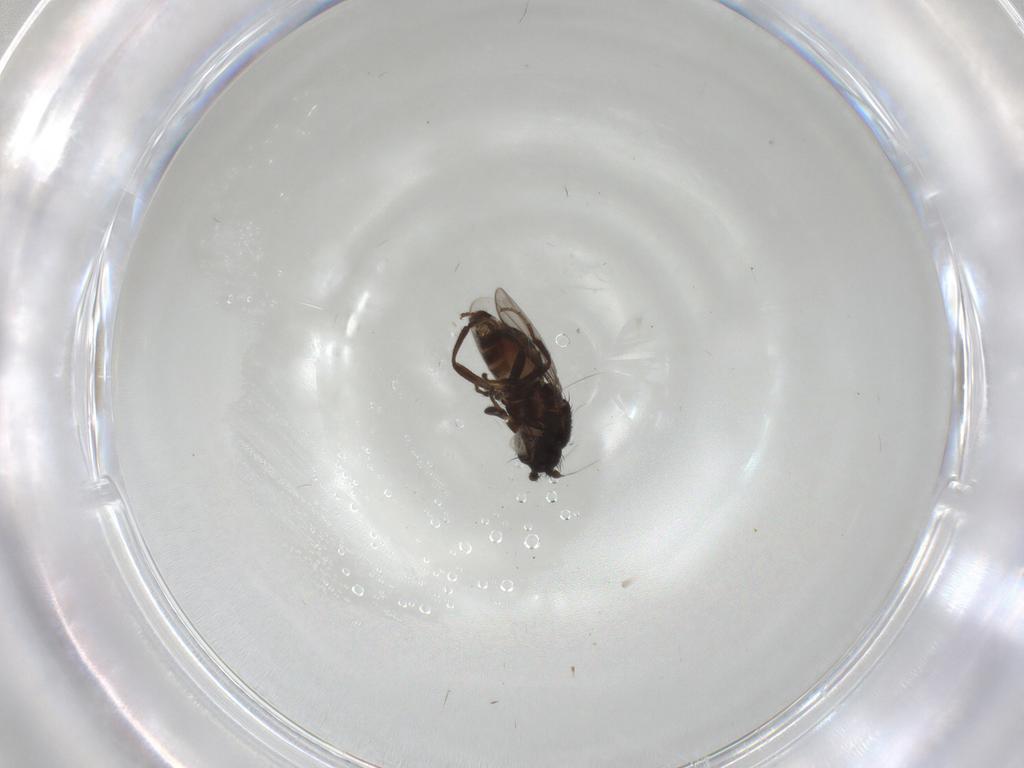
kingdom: Animalia
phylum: Arthropoda
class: Insecta
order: Diptera
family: Sphaeroceridae
